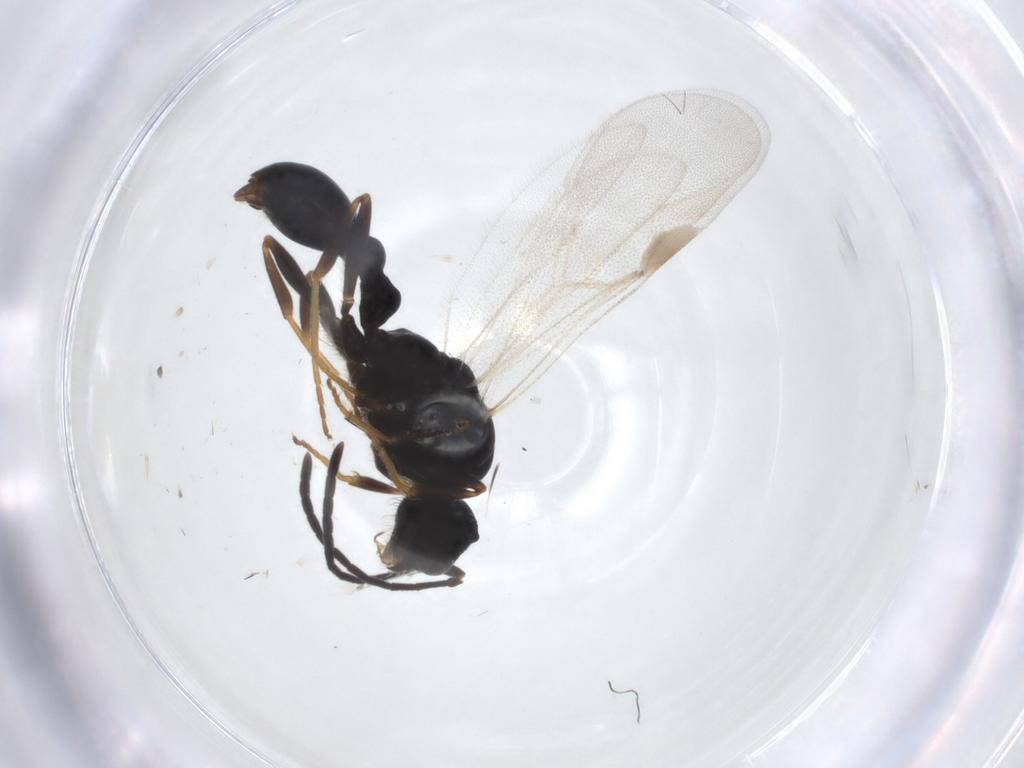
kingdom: Animalia
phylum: Arthropoda
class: Insecta
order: Hymenoptera
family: Formicidae
